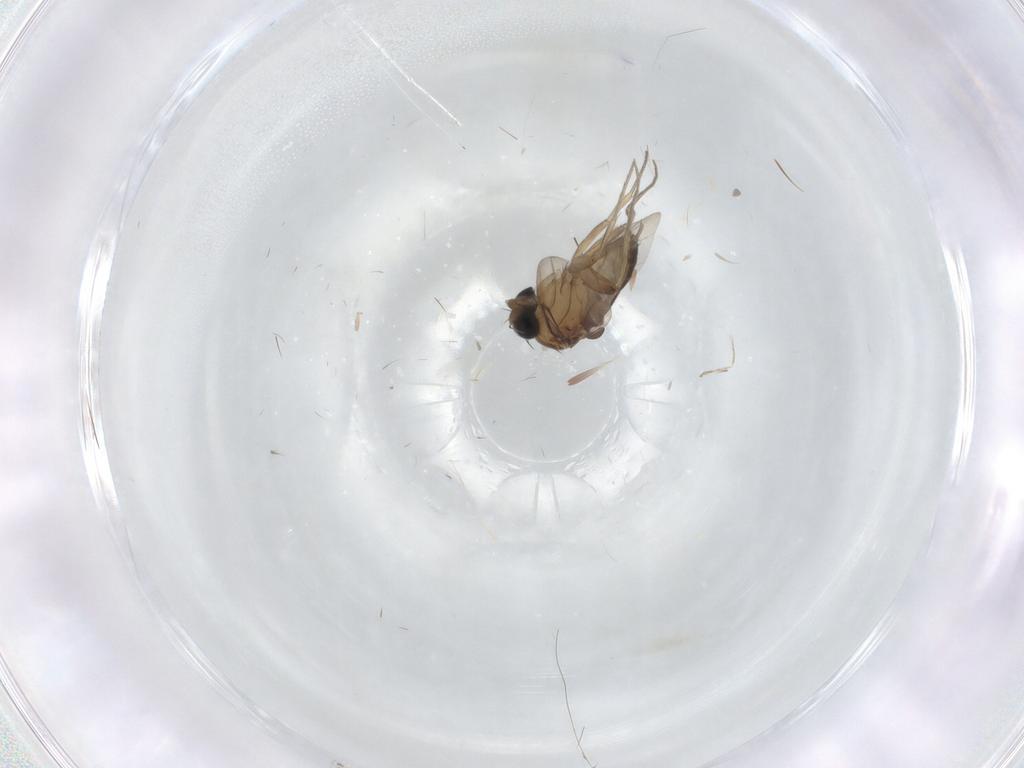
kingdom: Animalia
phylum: Arthropoda
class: Insecta
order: Diptera
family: Phoridae
